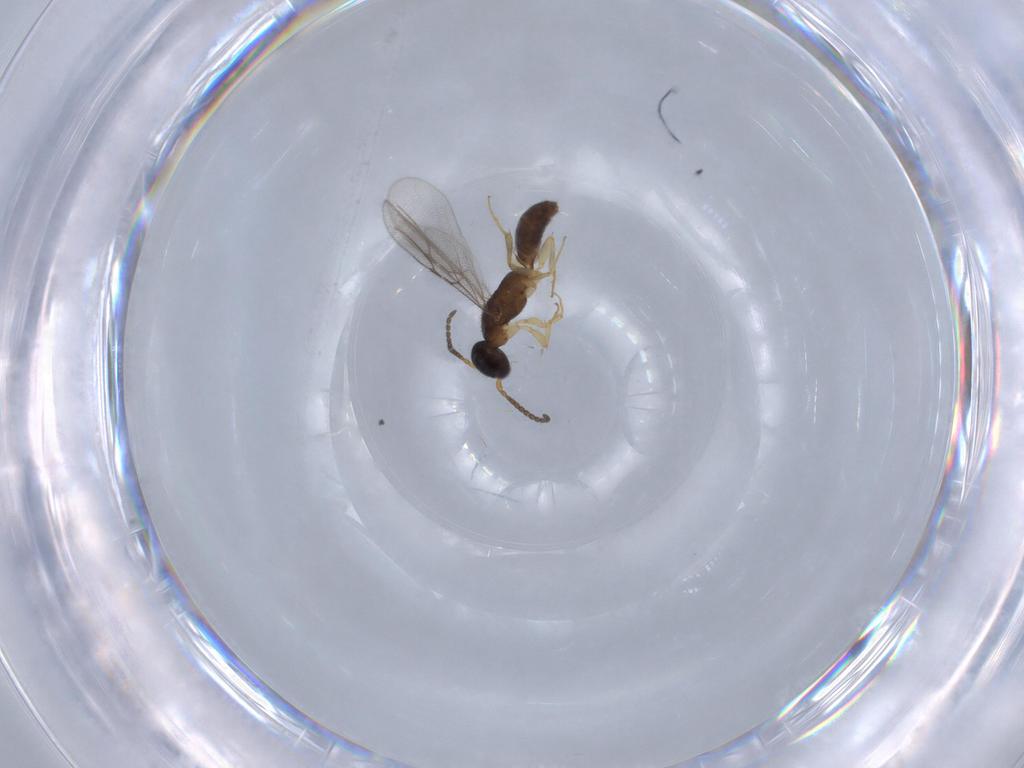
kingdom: Animalia
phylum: Arthropoda
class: Insecta
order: Hymenoptera
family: Bethylidae
